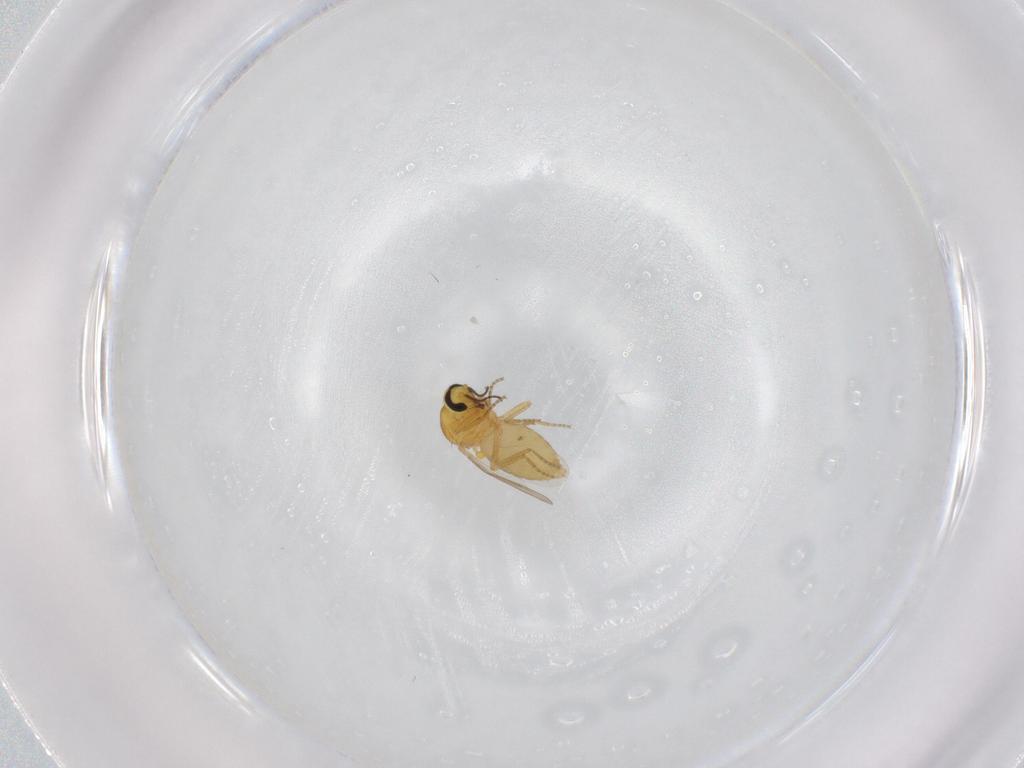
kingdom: Animalia
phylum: Arthropoda
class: Insecta
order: Diptera
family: Ceratopogonidae
